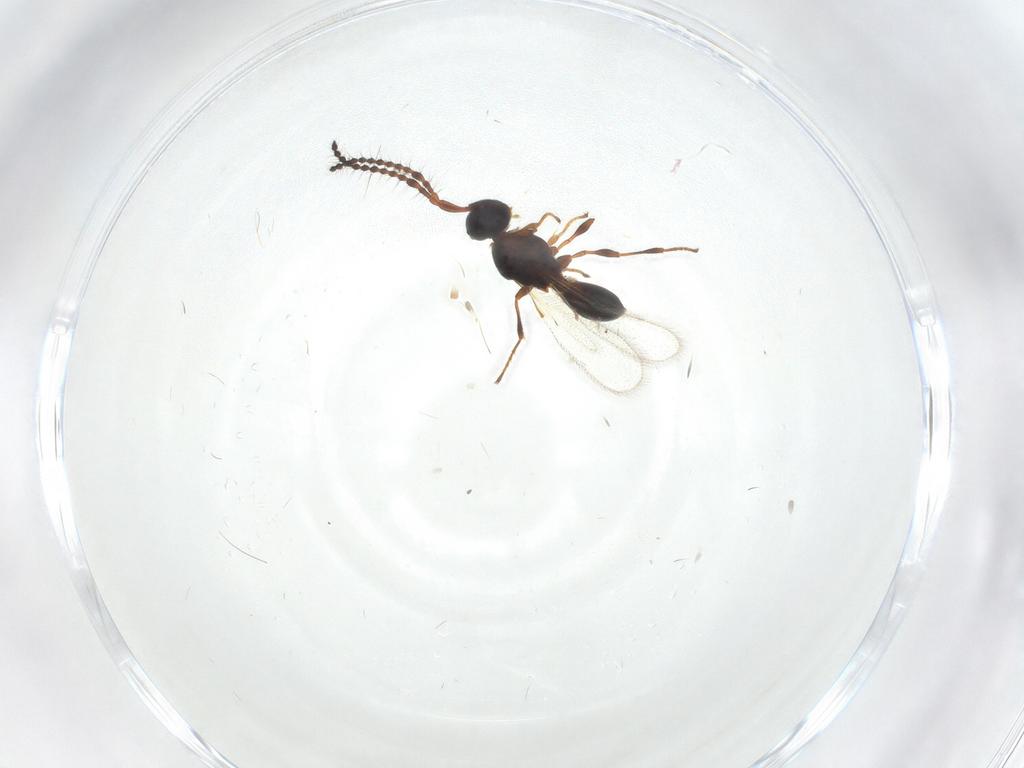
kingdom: Animalia
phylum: Arthropoda
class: Insecta
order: Hymenoptera
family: Diapriidae
